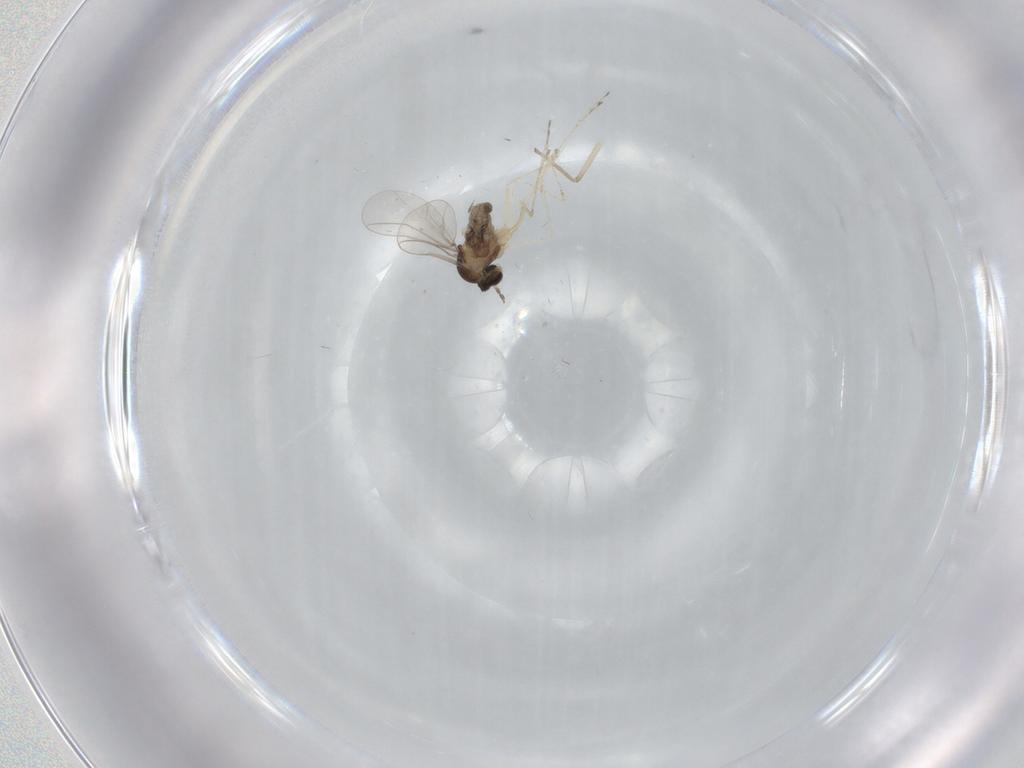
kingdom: Animalia
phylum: Arthropoda
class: Insecta
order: Diptera
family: Cecidomyiidae
